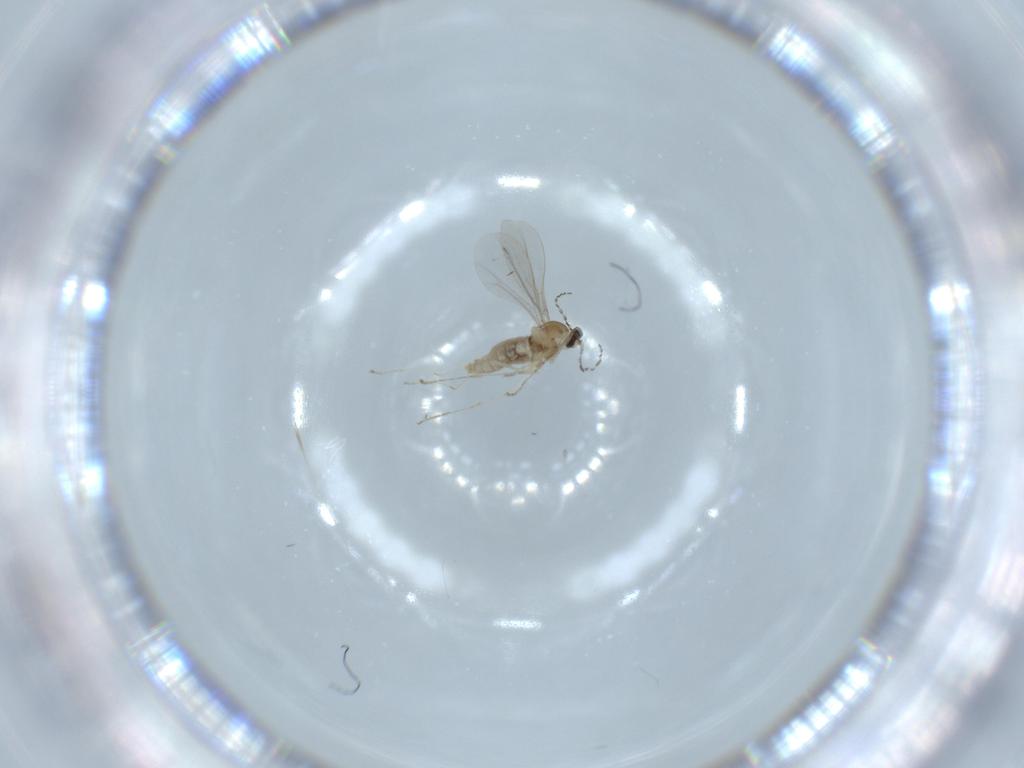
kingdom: Animalia
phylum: Arthropoda
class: Insecta
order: Diptera
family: Cecidomyiidae
